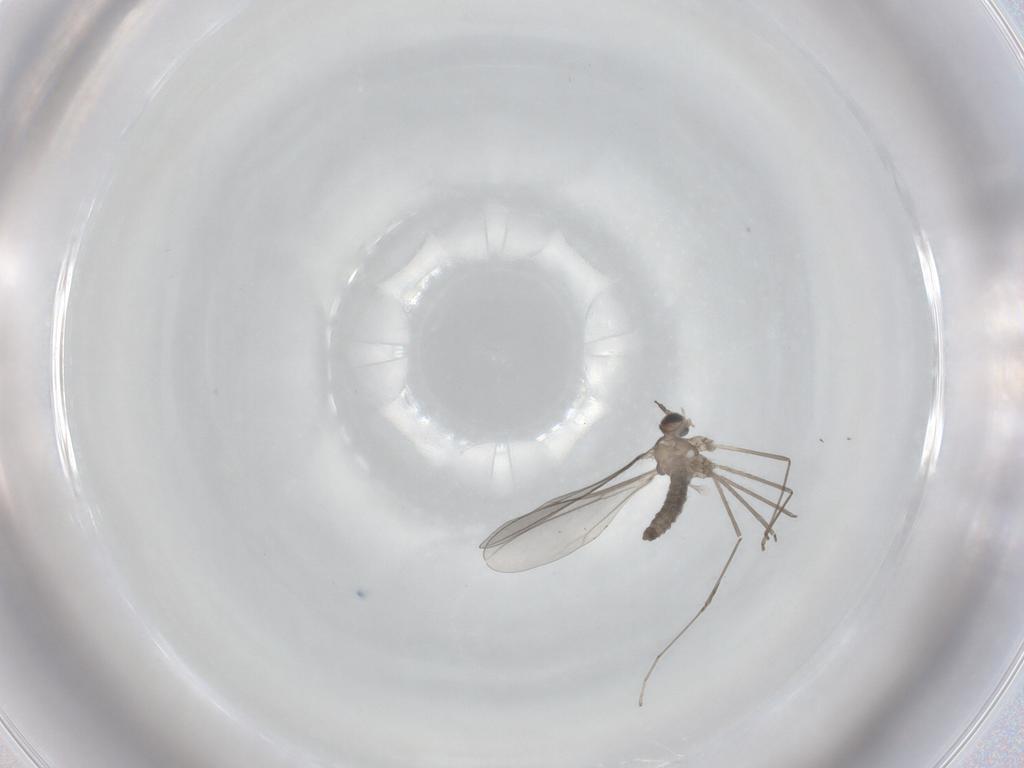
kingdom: Animalia
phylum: Arthropoda
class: Insecta
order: Diptera
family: Cecidomyiidae
